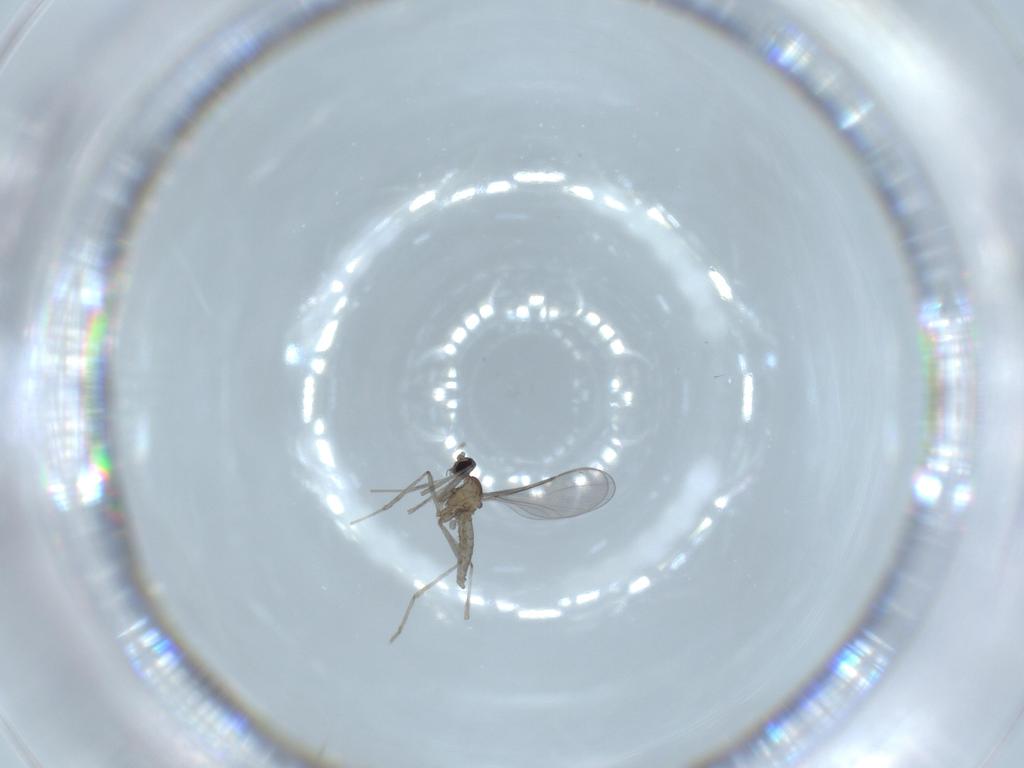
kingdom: Animalia
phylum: Arthropoda
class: Insecta
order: Diptera
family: Cecidomyiidae
